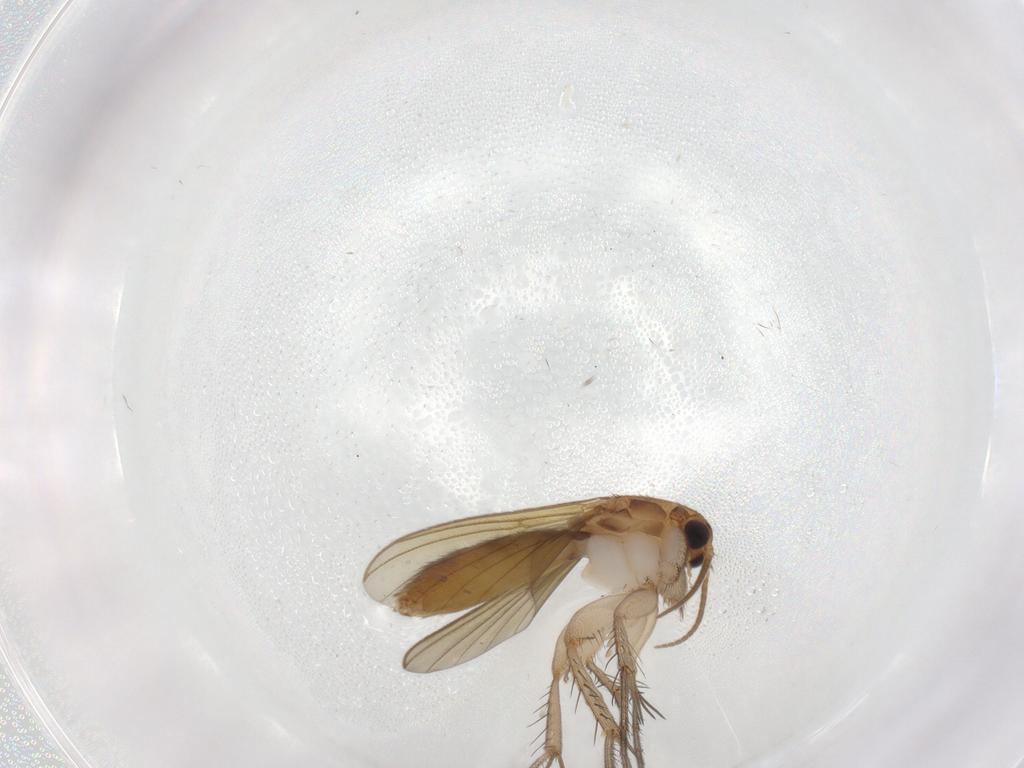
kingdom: Animalia
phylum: Arthropoda
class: Insecta
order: Diptera
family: Dolichopodidae
